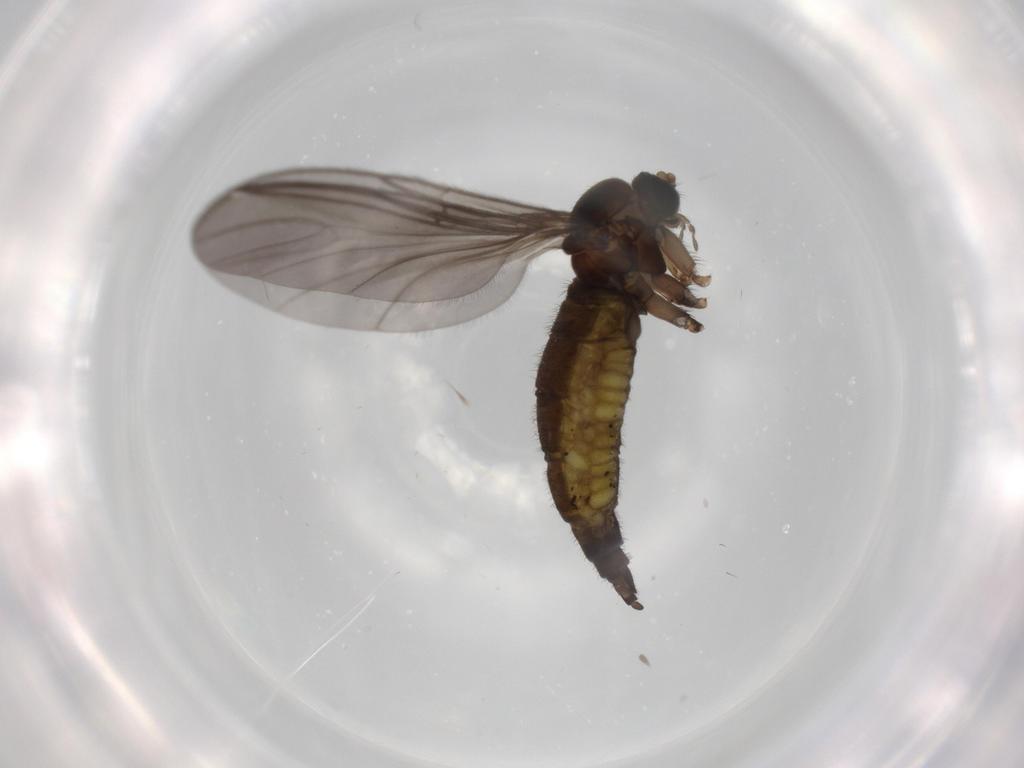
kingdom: Animalia
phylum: Arthropoda
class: Insecta
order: Diptera
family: Sciaridae
